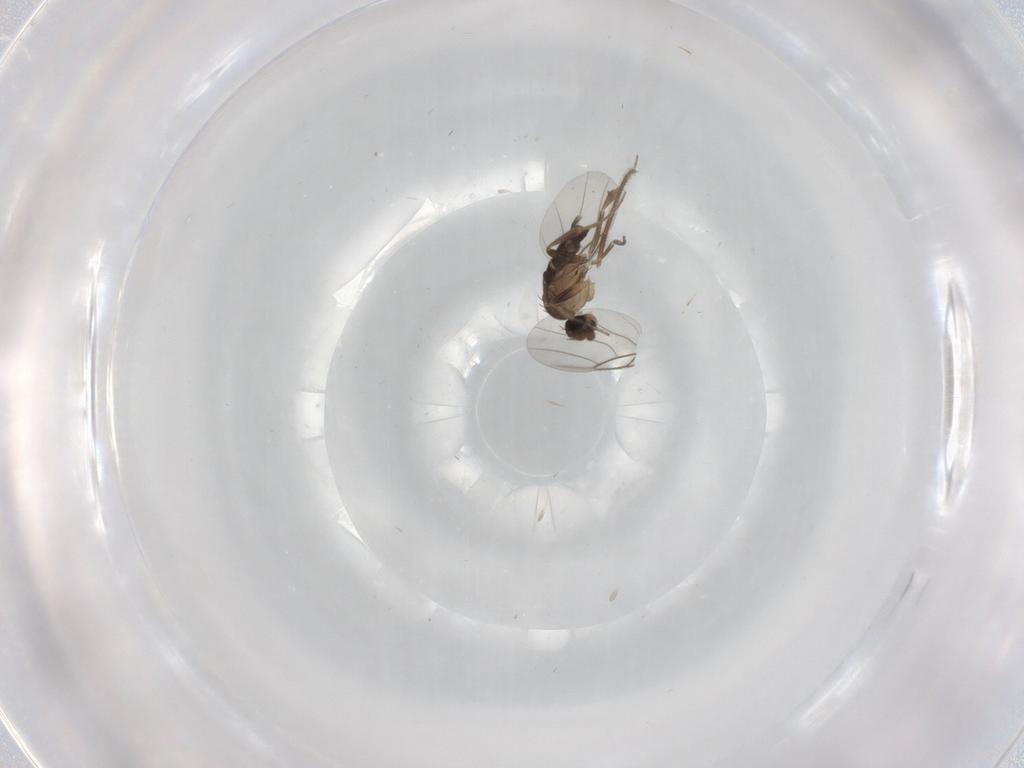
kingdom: Animalia
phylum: Arthropoda
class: Insecta
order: Diptera
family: Phoridae
